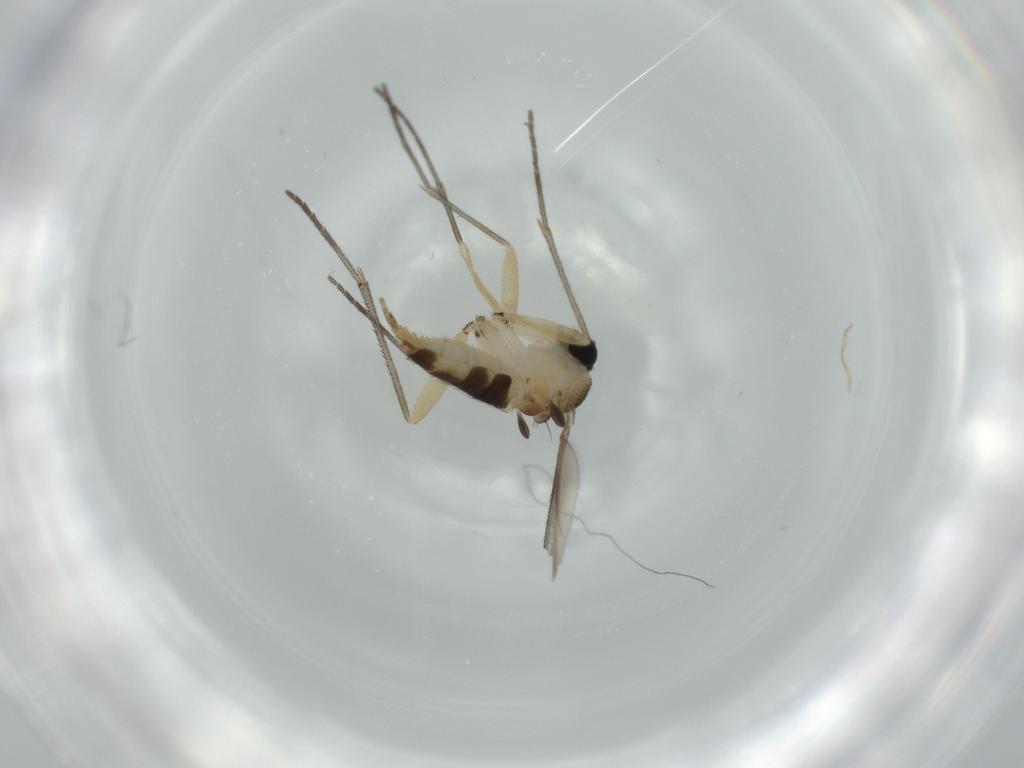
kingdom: Animalia
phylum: Arthropoda
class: Insecta
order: Diptera
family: Sciaridae
